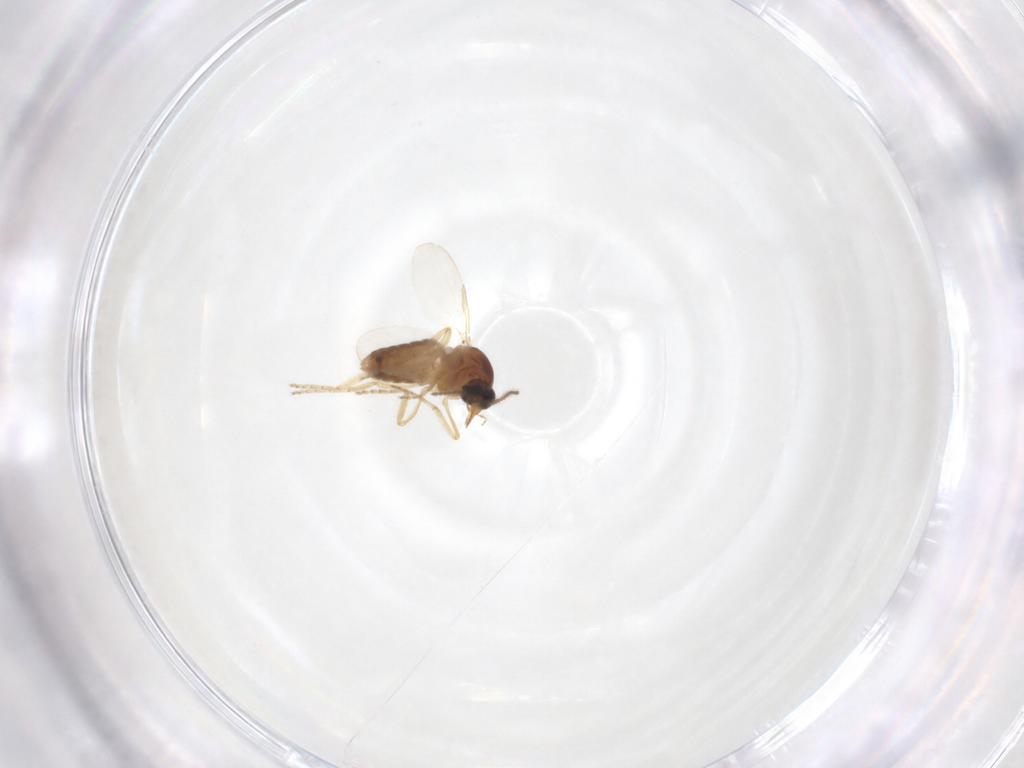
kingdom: Animalia
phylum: Arthropoda
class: Insecta
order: Diptera
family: Ceratopogonidae
